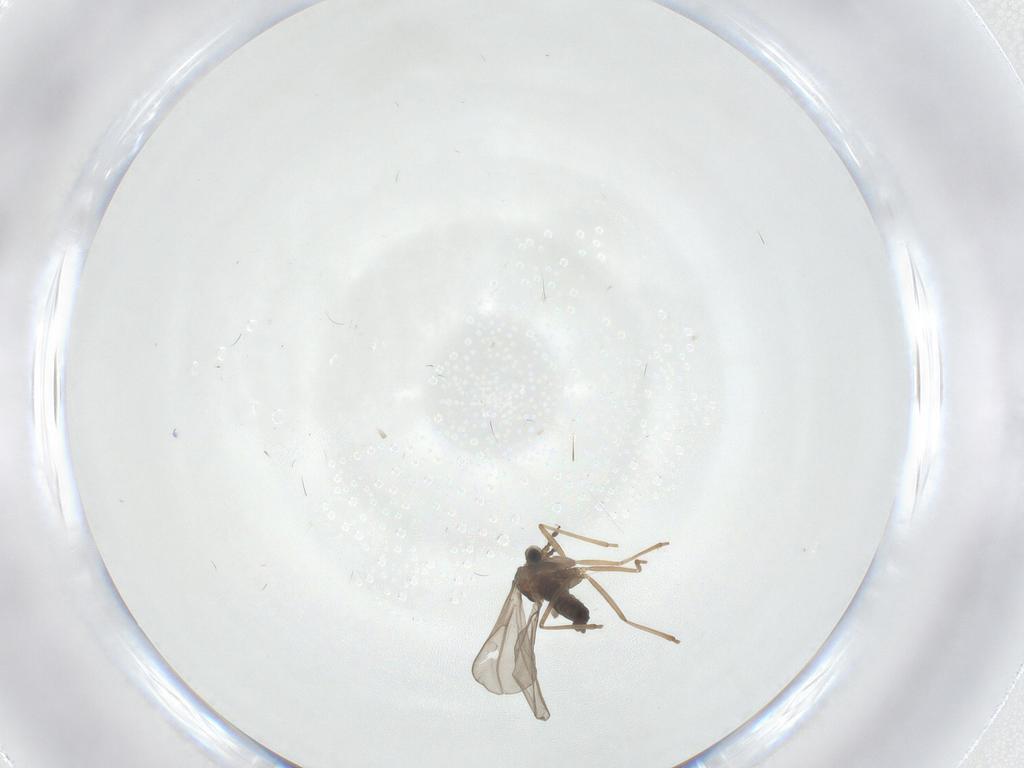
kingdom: Animalia
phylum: Arthropoda
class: Insecta
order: Diptera
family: Cecidomyiidae
